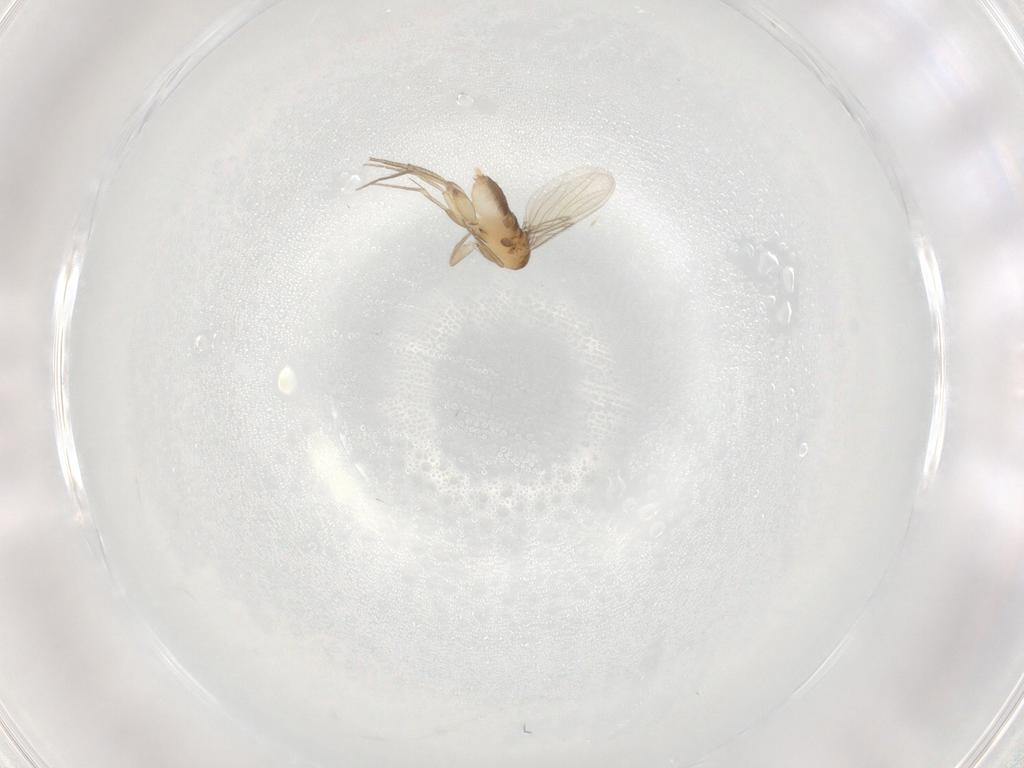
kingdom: Animalia
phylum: Arthropoda
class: Insecta
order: Diptera
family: Phoridae
